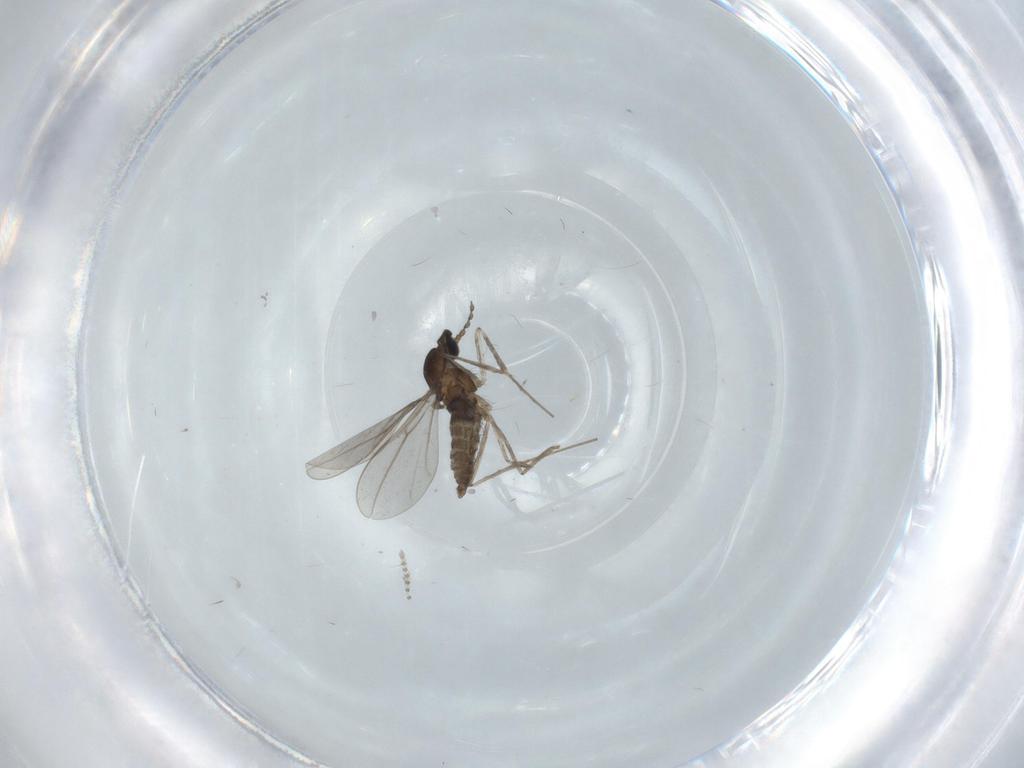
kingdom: Animalia
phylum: Arthropoda
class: Insecta
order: Diptera
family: Cecidomyiidae
